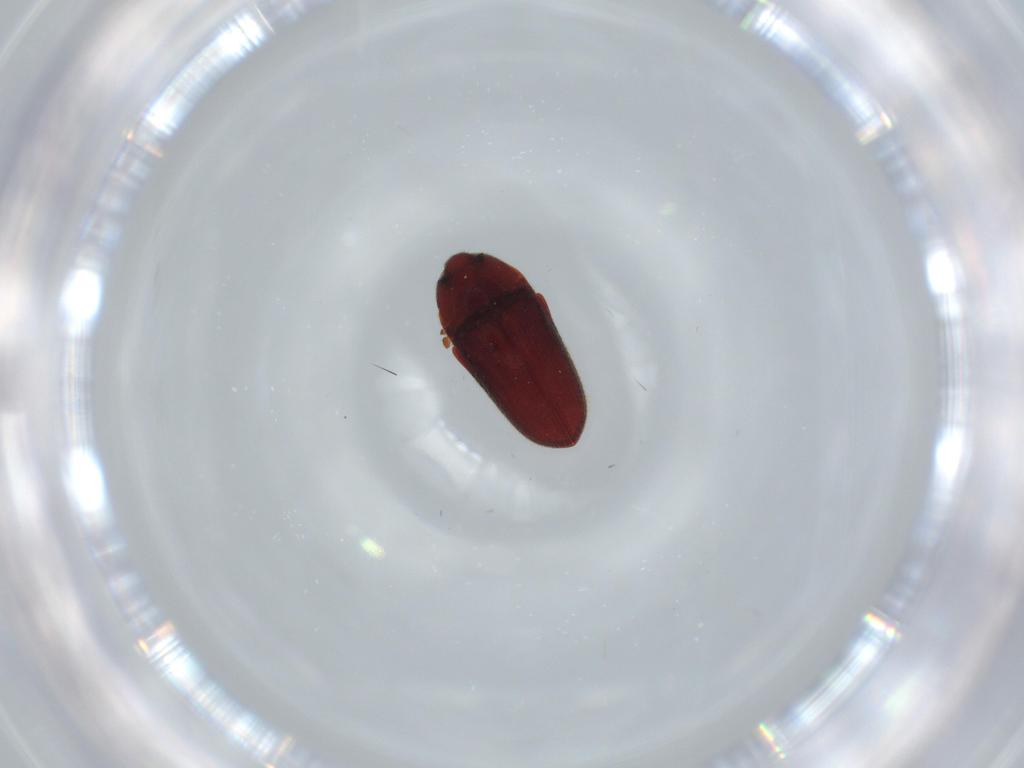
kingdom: Animalia
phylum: Arthropoda
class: Insecta
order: Coleoptera
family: Throscidae
